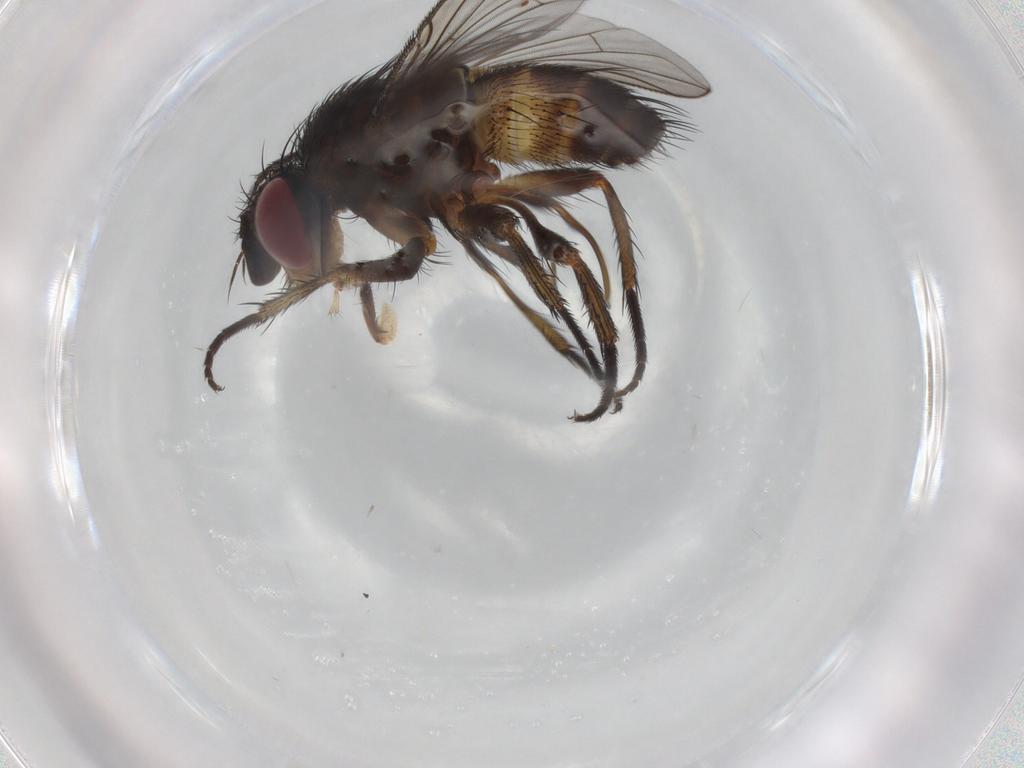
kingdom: Animalia
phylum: Arthropoda
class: Insecta
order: Diptera
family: Tachinidae
